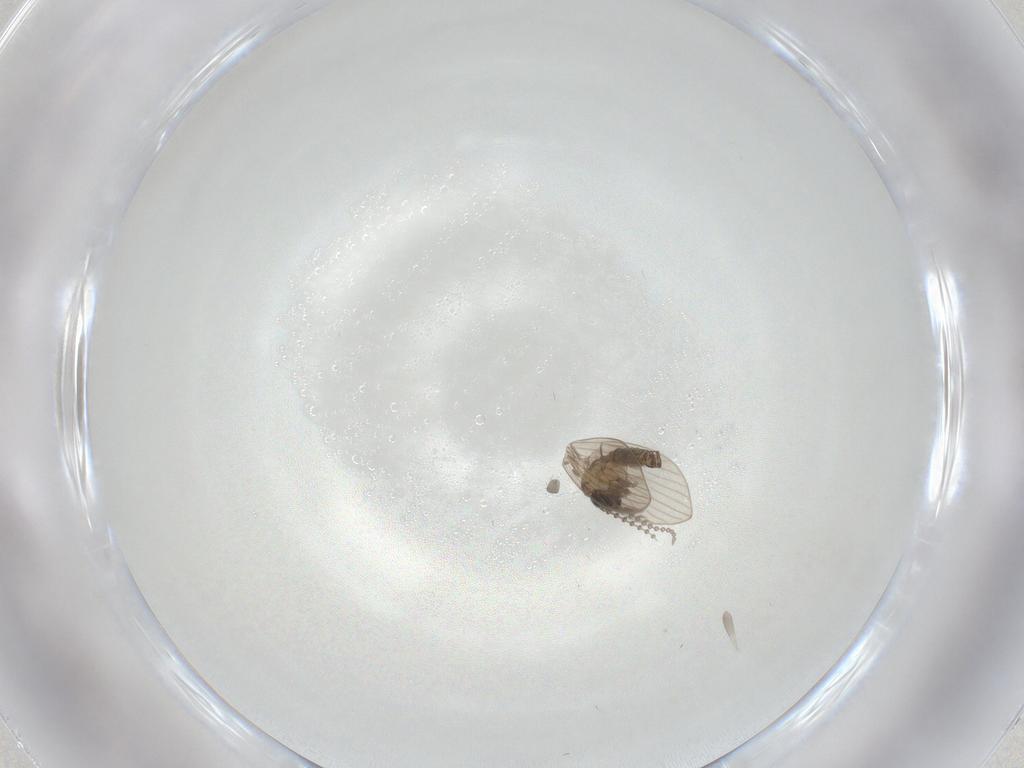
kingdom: Animalia
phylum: Arthropoda
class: Insecta
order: Diptera
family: Psychodidae
